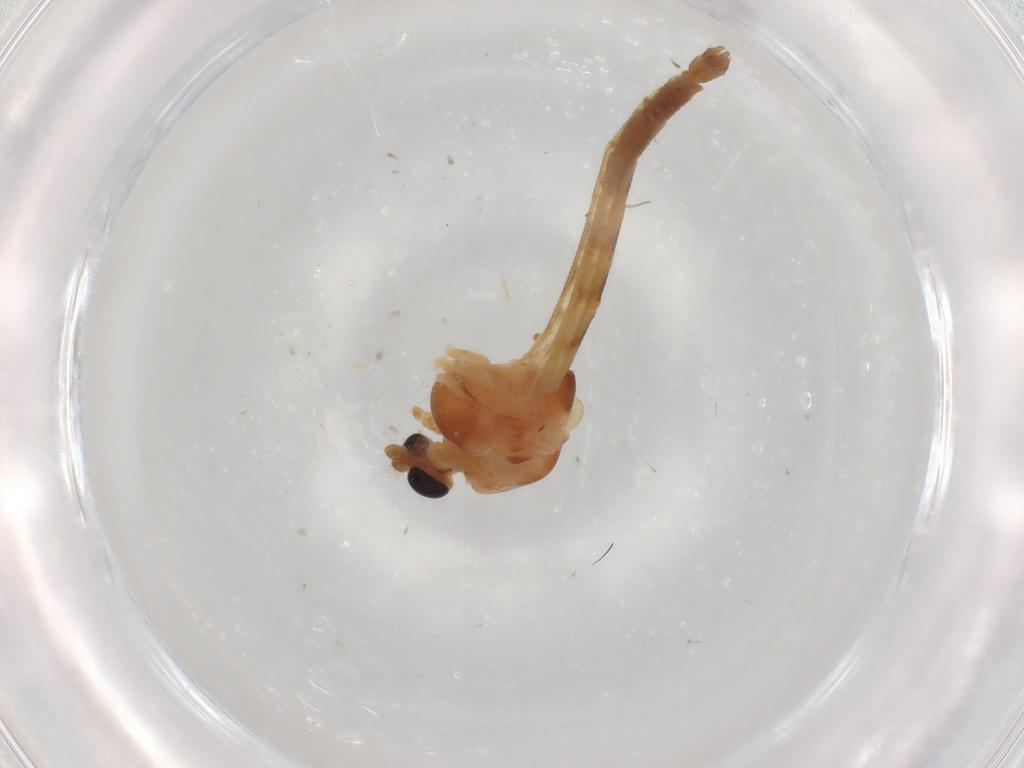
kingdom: Animalia
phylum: Arthropoda
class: Insecta
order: Diptera
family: Chironomidae
